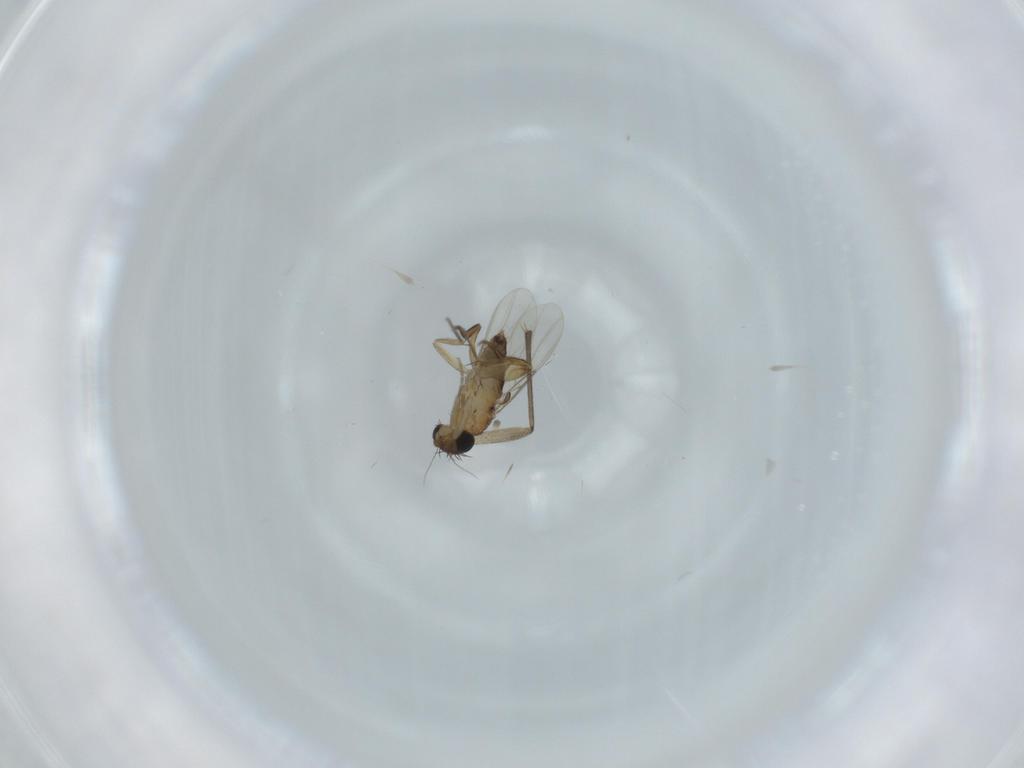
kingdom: Animalia
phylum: Arthropoda
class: Insecta
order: Diptera
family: Phoridae
